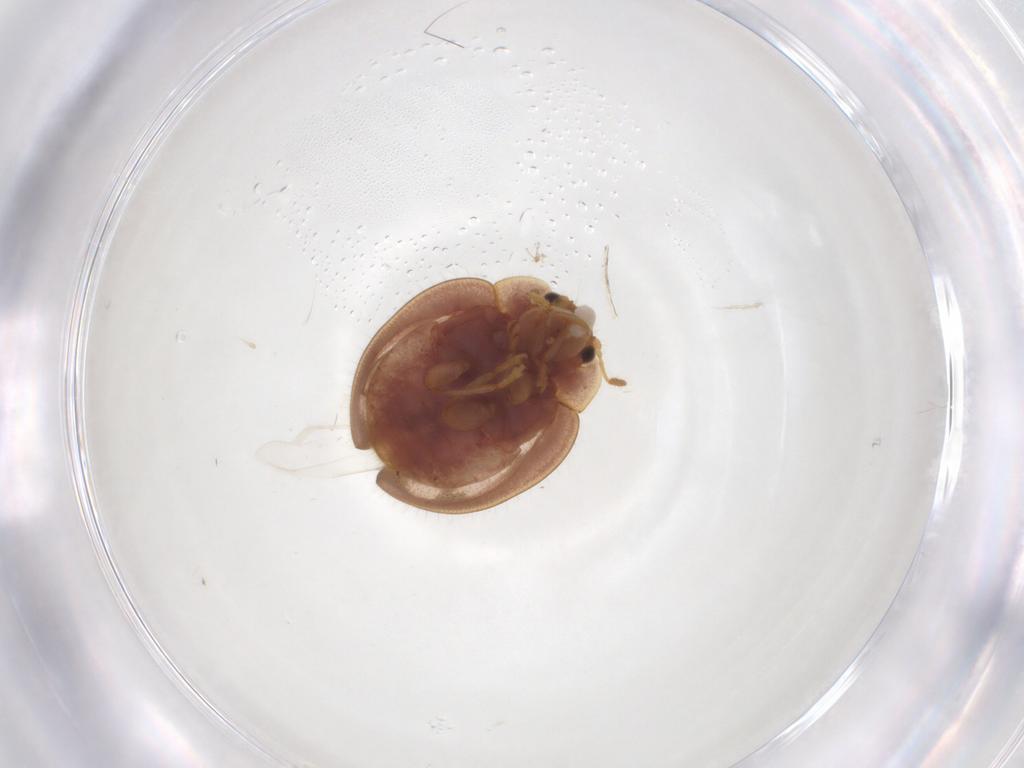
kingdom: Animalia
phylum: Arthropoda
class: Insecta
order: Coleoptera
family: Coccinellidae
